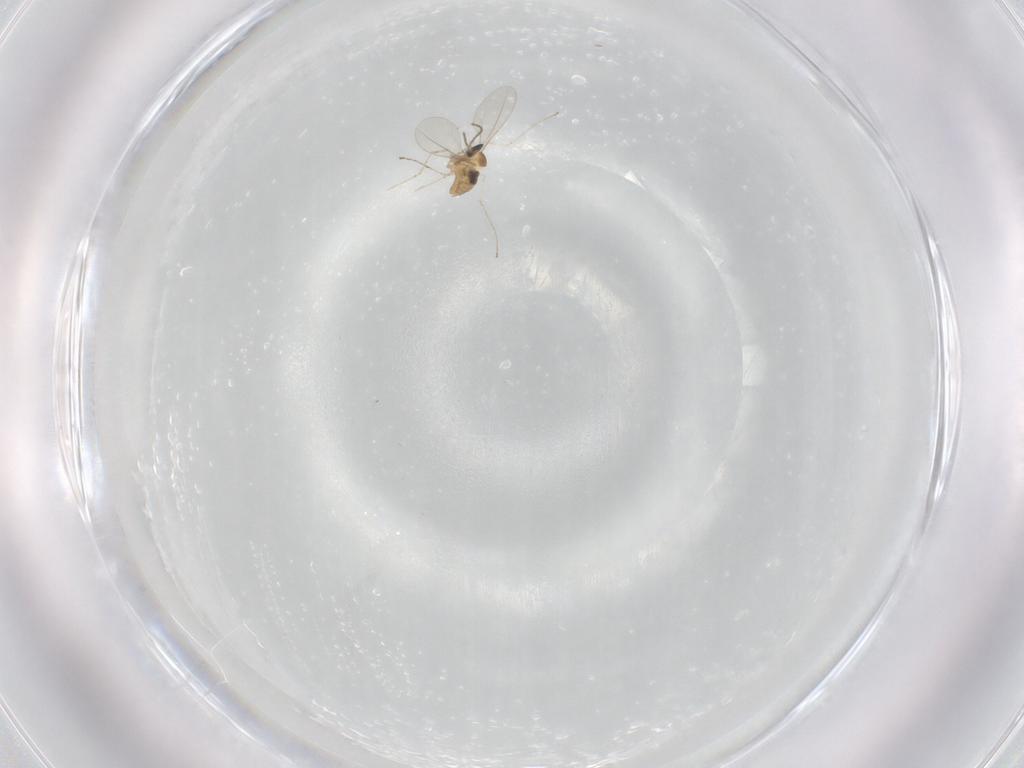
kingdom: Animalia
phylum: Arthropoda
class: Insecta
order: Diptera
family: Cecidomyiidae
